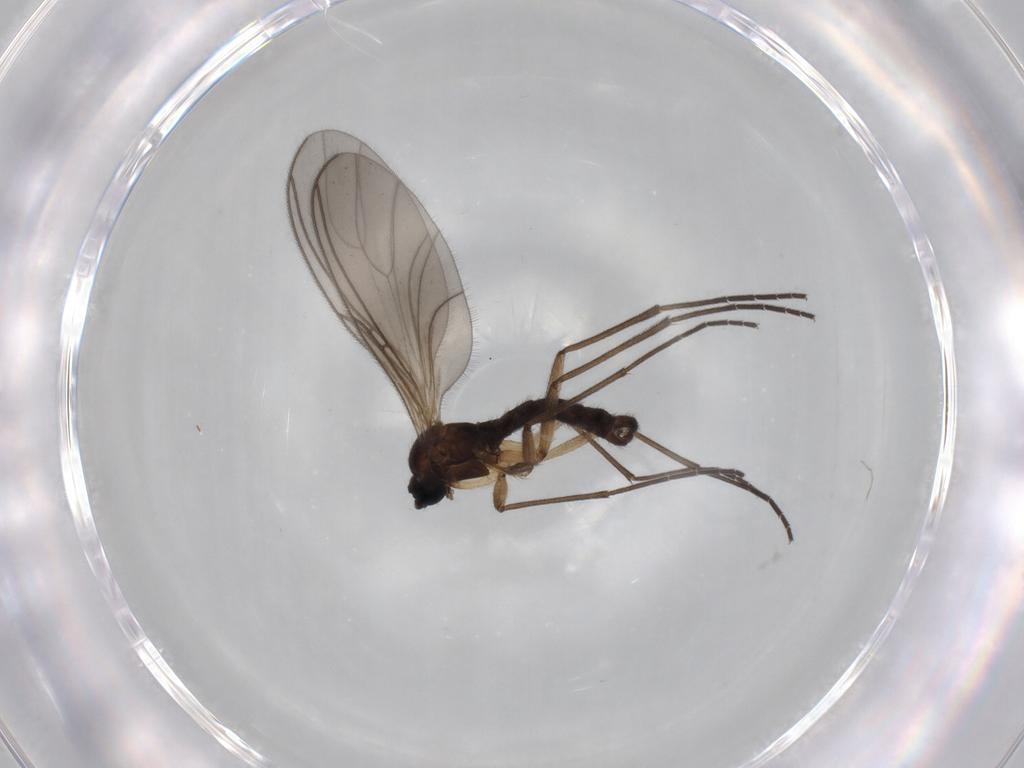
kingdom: Animalia
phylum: Arthropoda
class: Insecta
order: Diptera
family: Sciaridae
